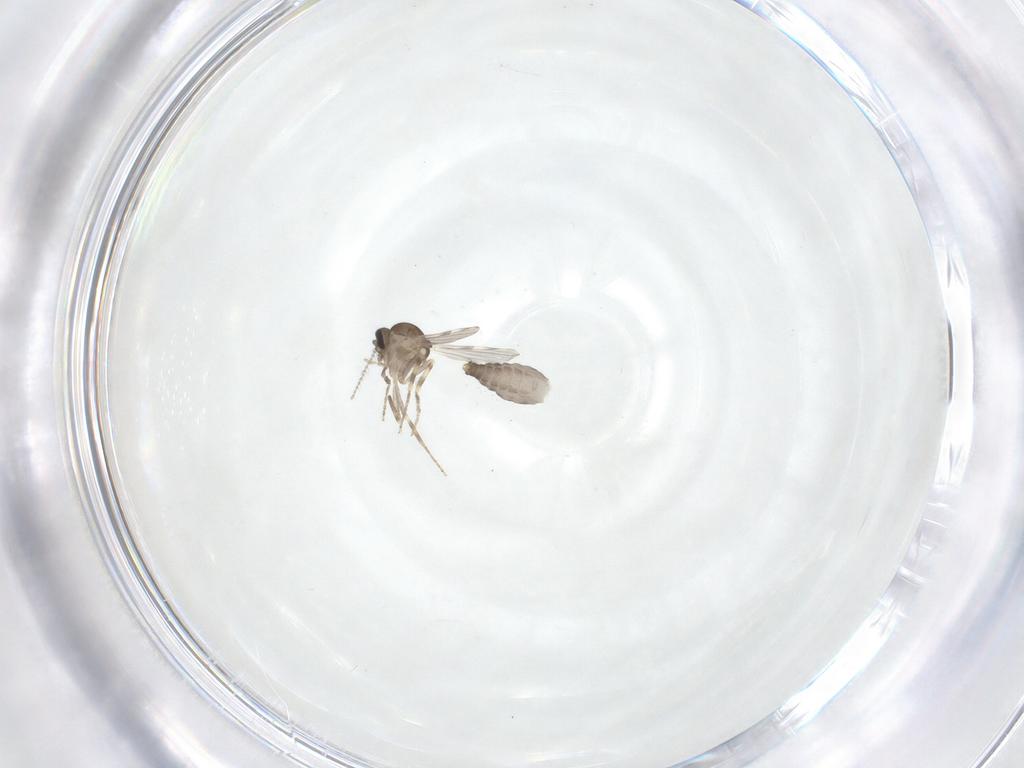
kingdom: Animalia
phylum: Arthropoda
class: Insecta
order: Diptera
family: Ceratopogonidae
